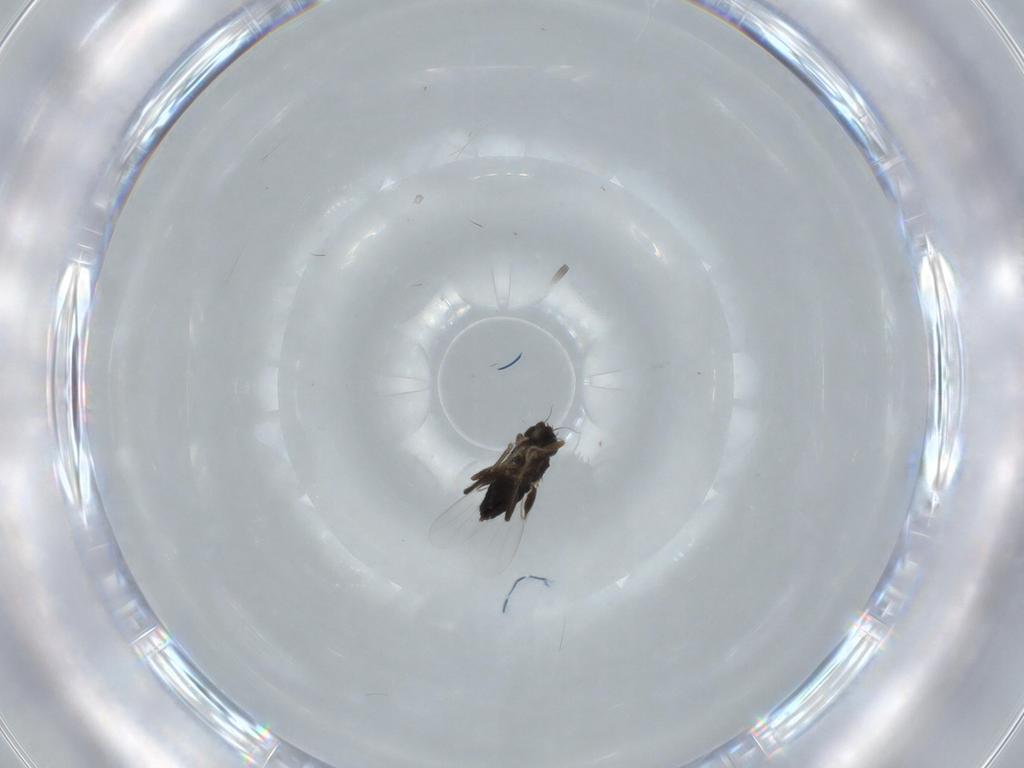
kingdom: Animalia
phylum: Arthropoda
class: Insecta
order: Diptera
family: Phoridae
